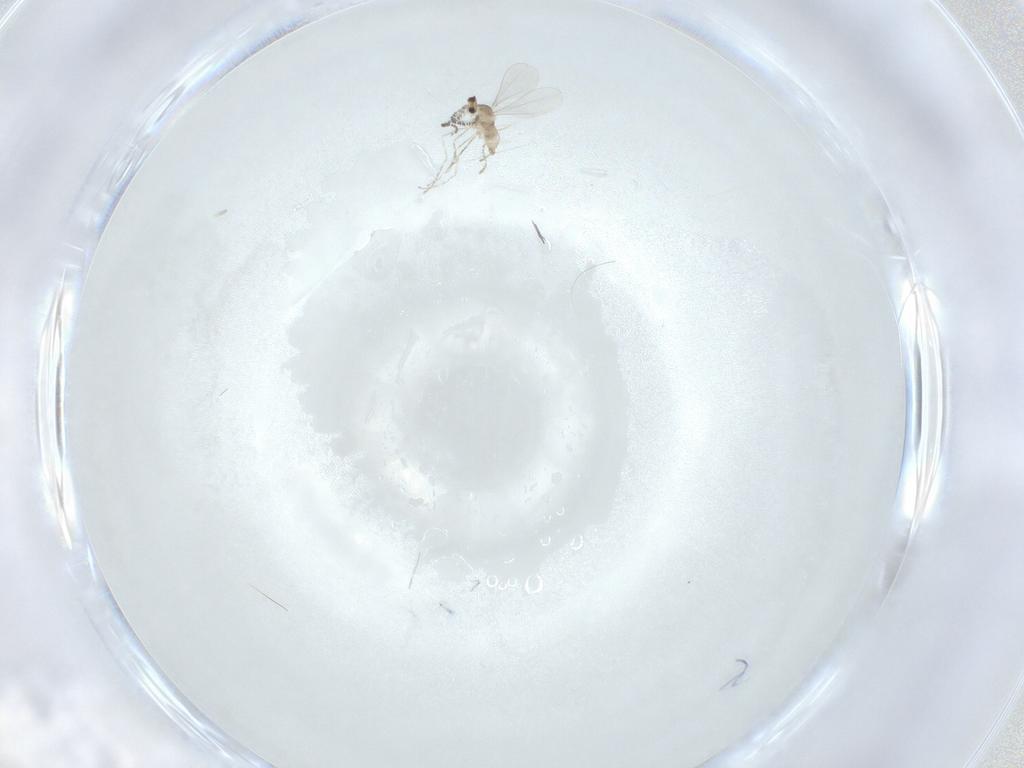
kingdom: Animalia
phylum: Arthropoda
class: Insecta
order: Diptera
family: Cecidomyiidae
